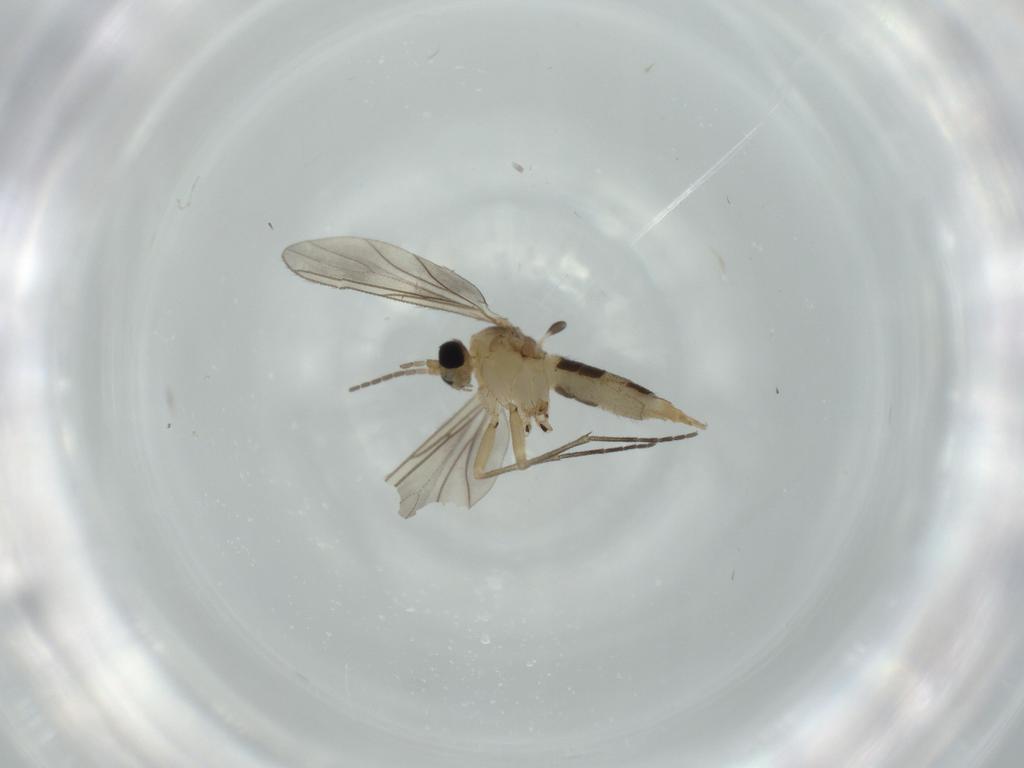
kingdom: Animalia
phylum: Arthropoda
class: Insecta
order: Diptera
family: Sciaridae
